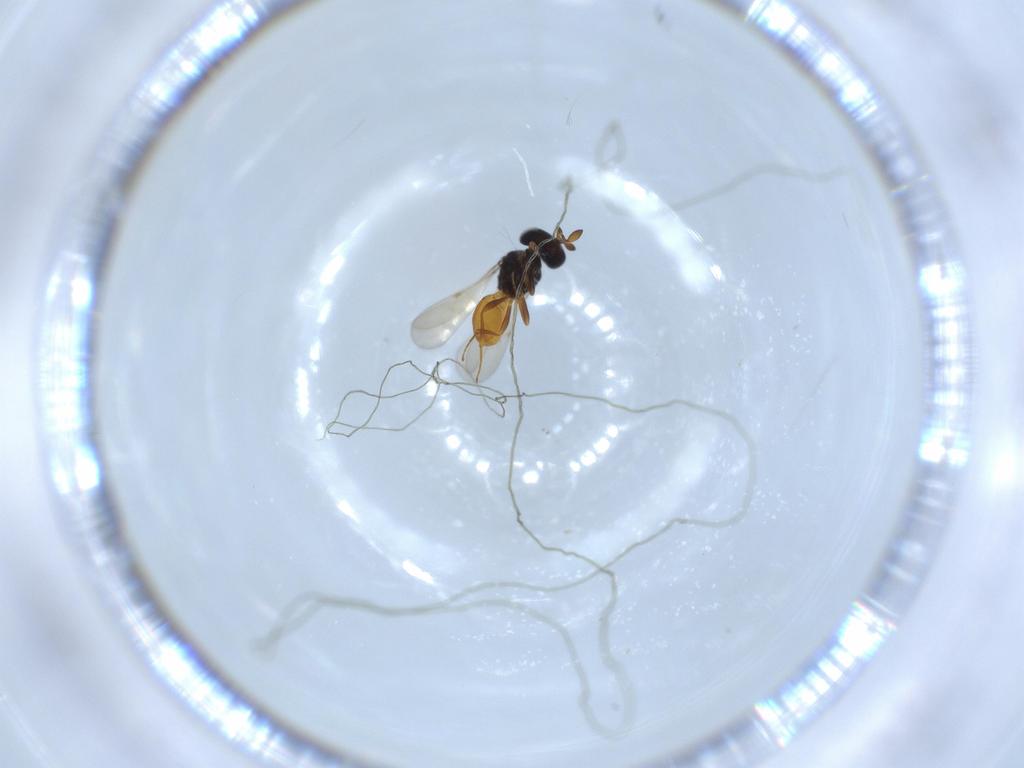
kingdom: Animalia
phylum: Arthropoda
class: Insecta
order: Hymenoptera
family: Scelionidae
